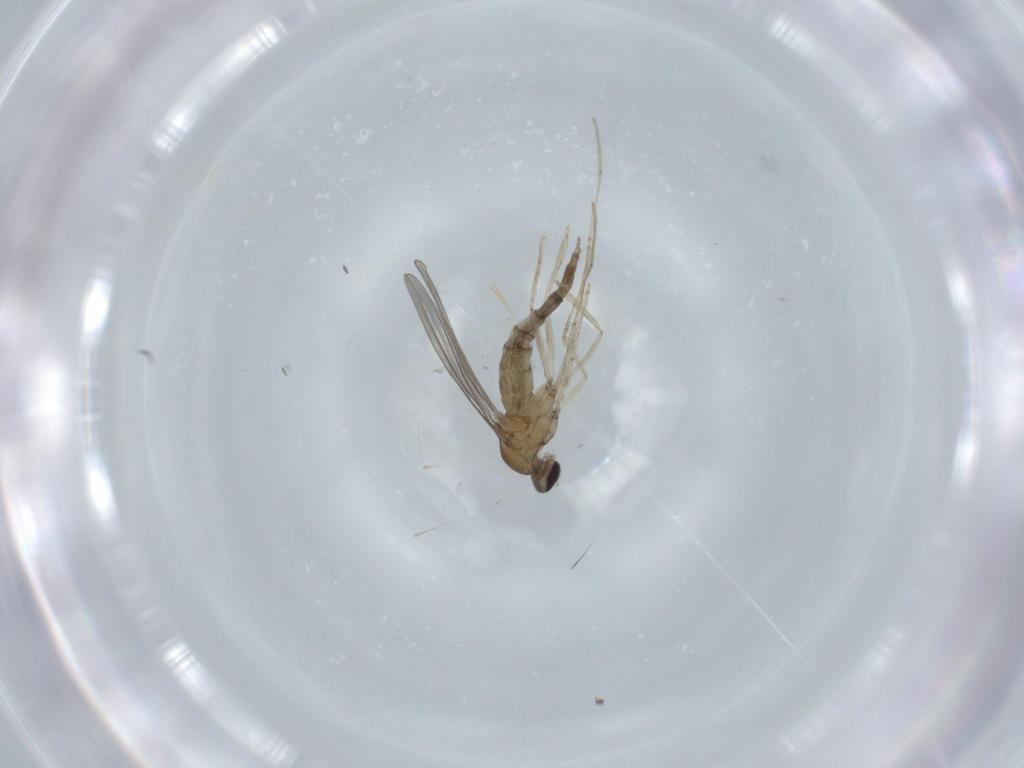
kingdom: Animalia
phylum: Arthropoda
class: Insecta
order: Diptera
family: Cecidomyiidae
